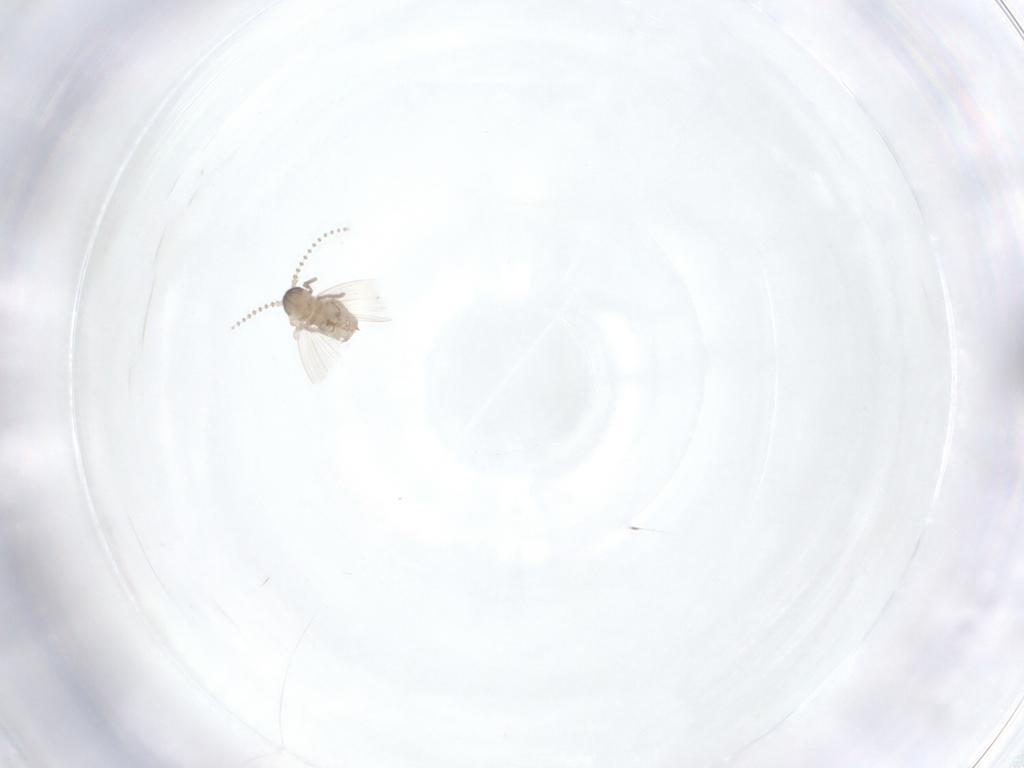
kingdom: Animalia
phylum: Arthropoda
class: Insecta
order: Diptera
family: Psychodidae
